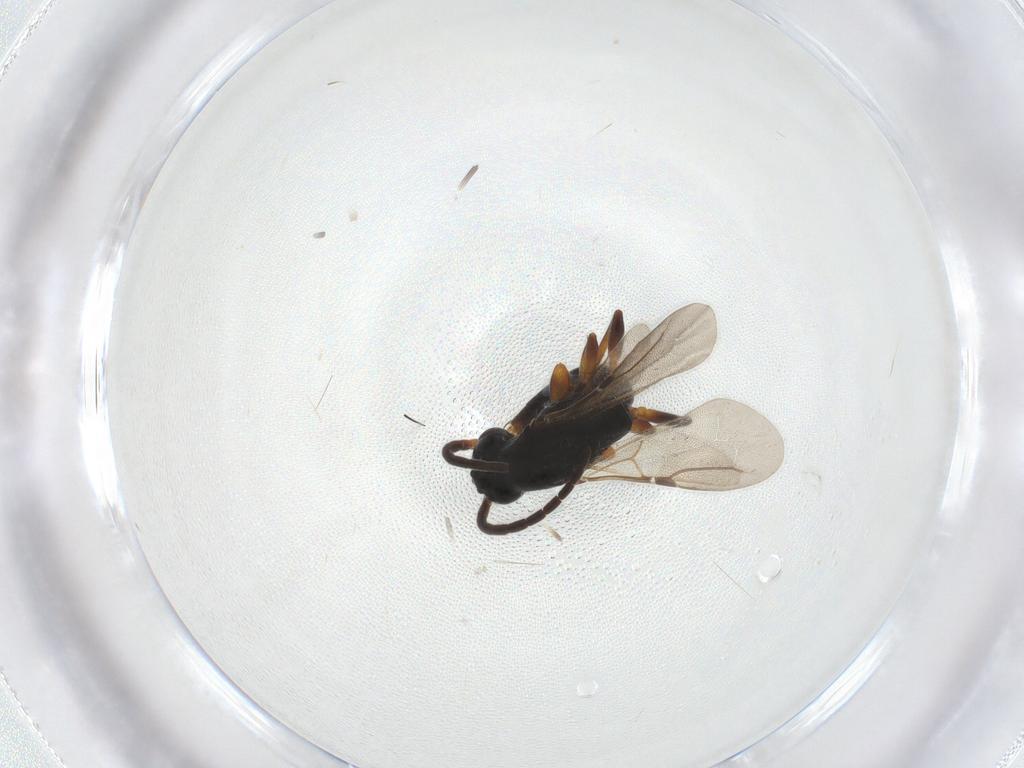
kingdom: Animalia
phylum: Arthropoda
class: Insecta
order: Hymenoptera
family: Bethylidae
